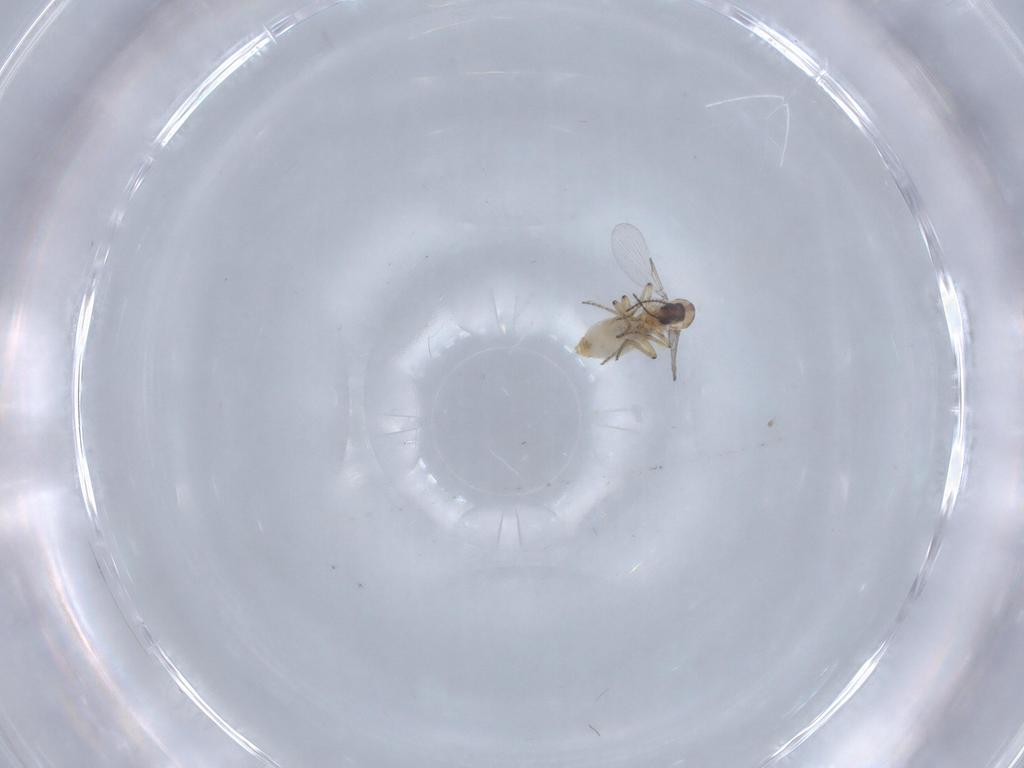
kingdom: Animalia
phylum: Arthropoda
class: Insecta
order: Diptera
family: Ceratopogonidae
